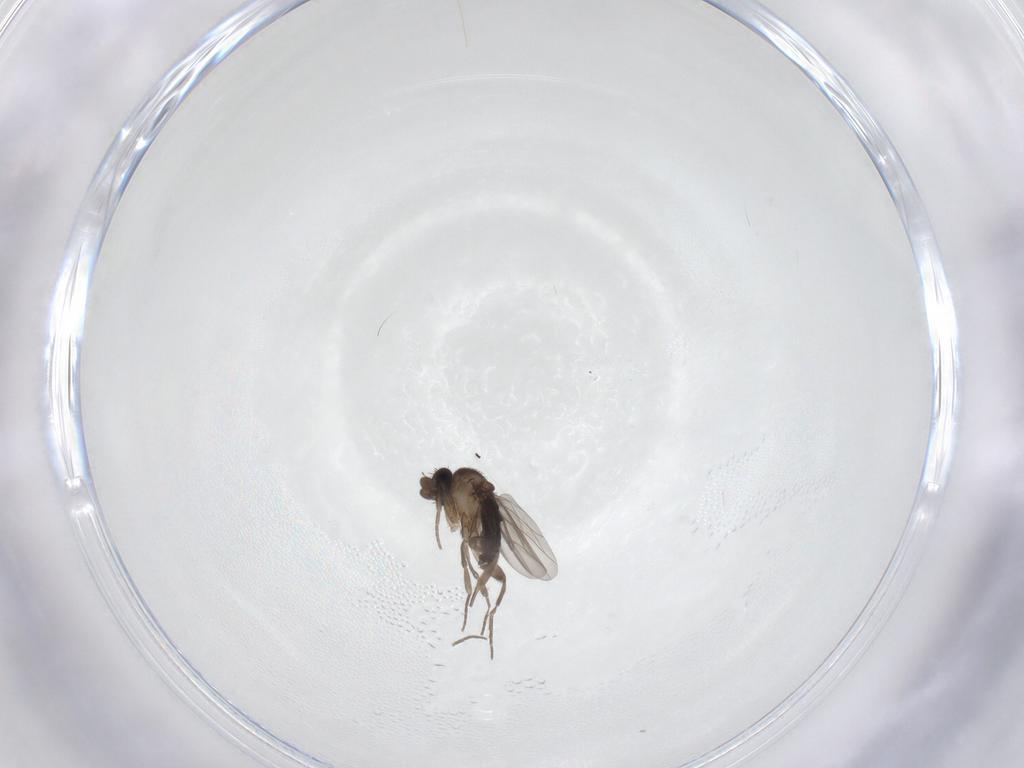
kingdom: Animalia
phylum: Arthropoda
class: Insecta
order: Diptera
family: Phoridae
